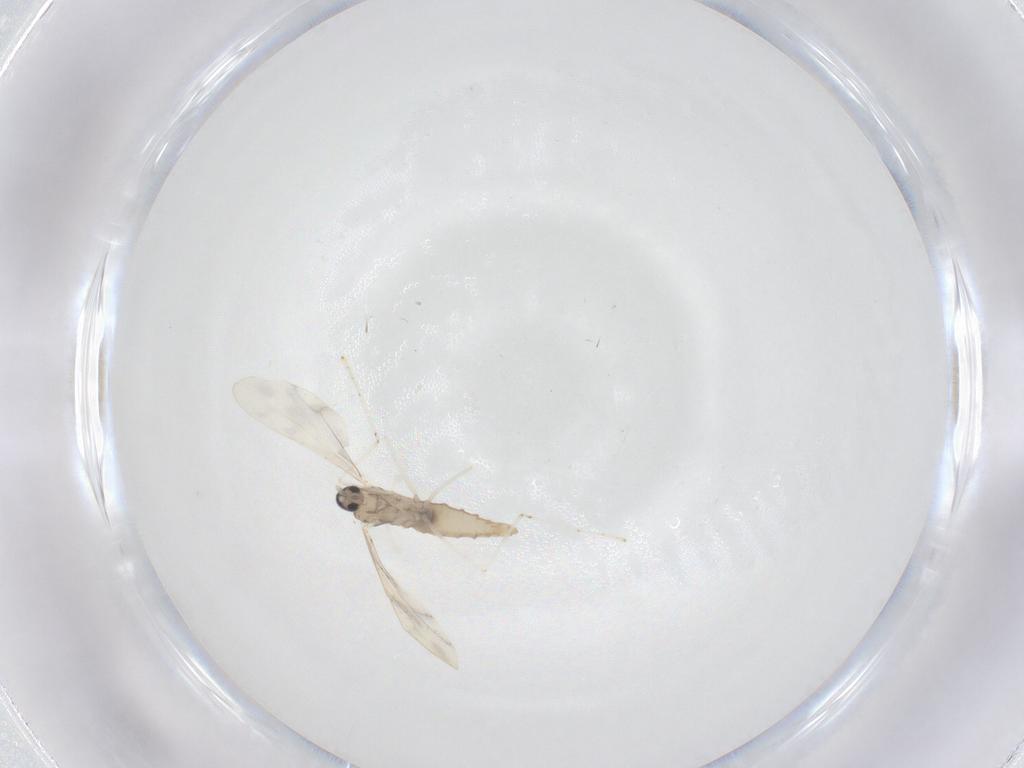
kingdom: Animalia
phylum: Arthropoda
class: Insecta
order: Diptera
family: Cecidomyiidae
